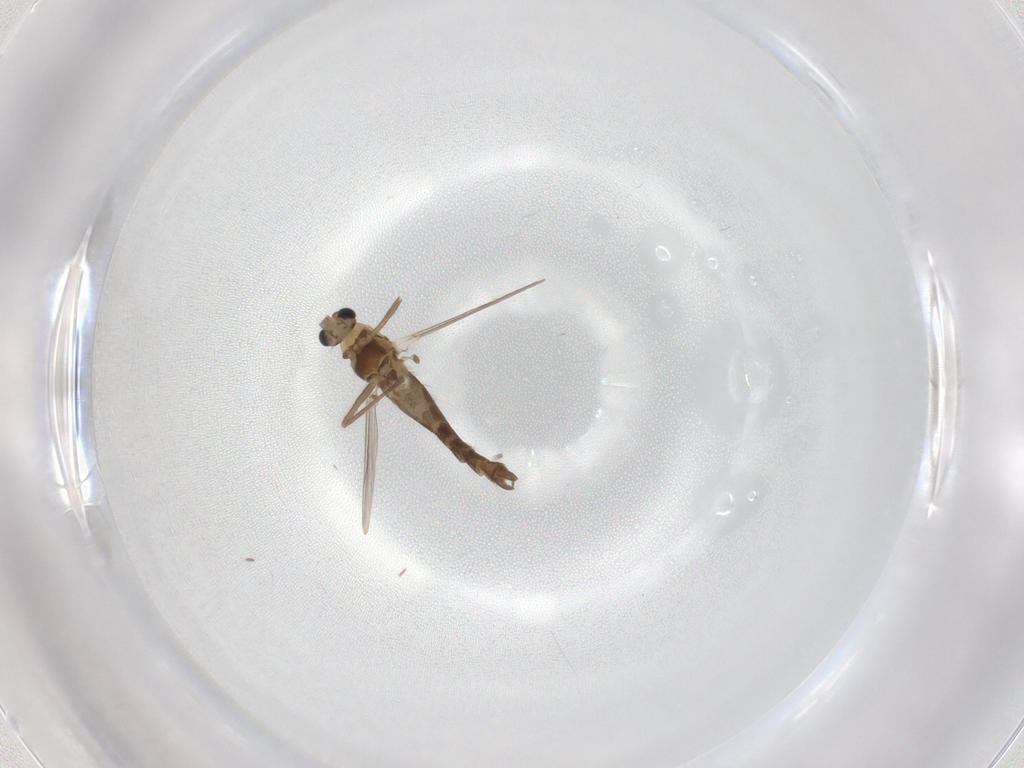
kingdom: Animalia
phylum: Arthropoda
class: Insecta
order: Diptera
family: Chironomidae
